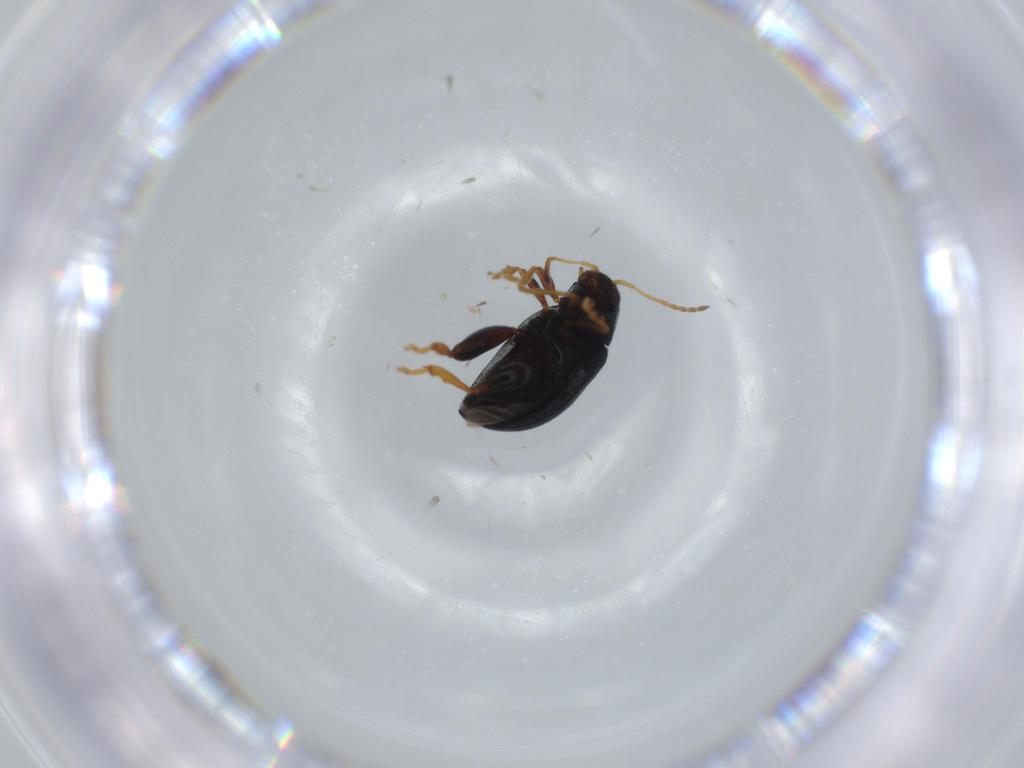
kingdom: Animalia
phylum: Arthropoda
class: Insecta
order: Coleoptera
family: Chrysomelidae
